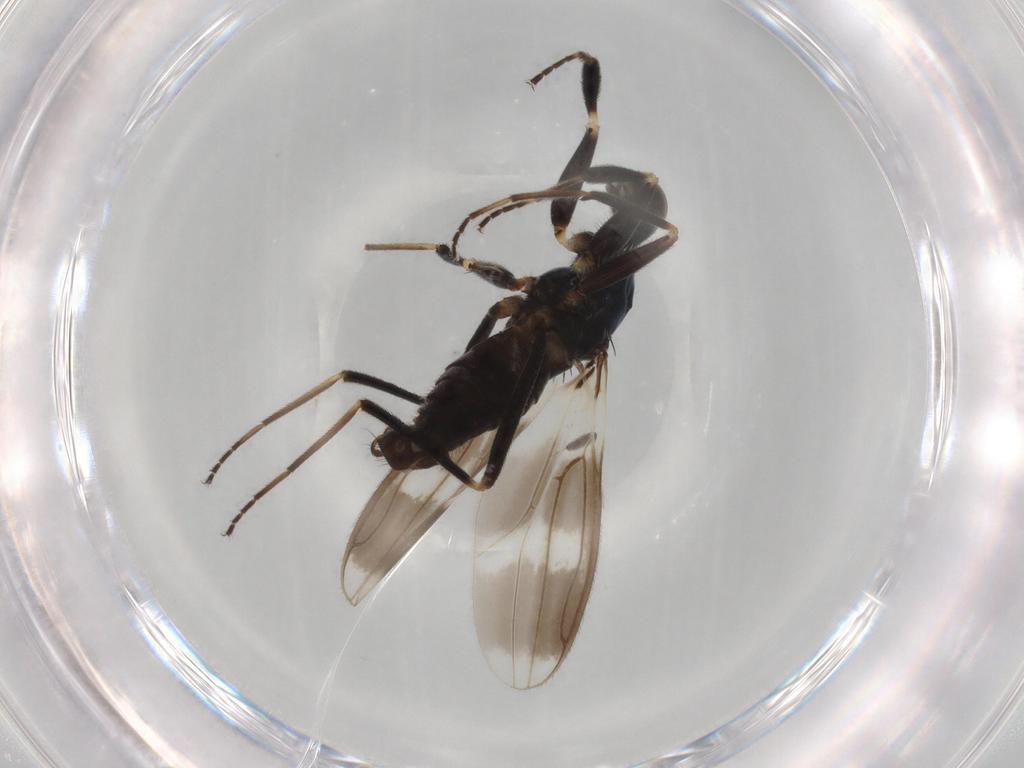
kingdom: Animalia
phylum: Arthropoda
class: Insecta
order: Diptera
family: Hybotidae
